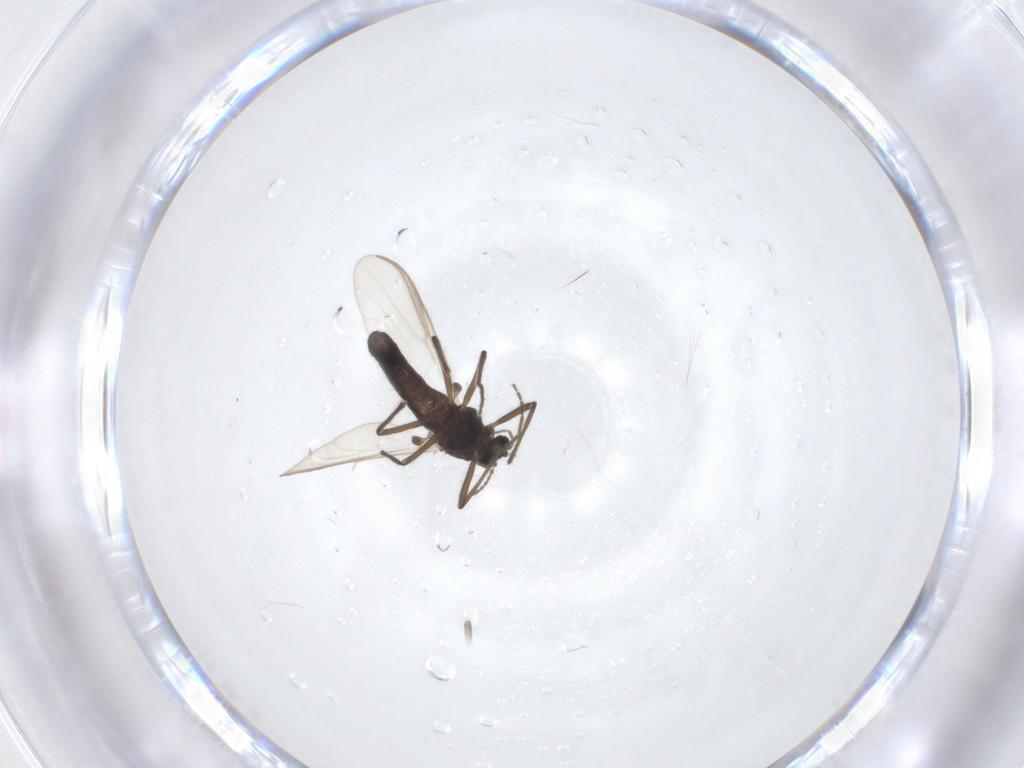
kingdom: Animalia
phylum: Arthropoda
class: Insecta
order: Diptera
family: Chironomidae
